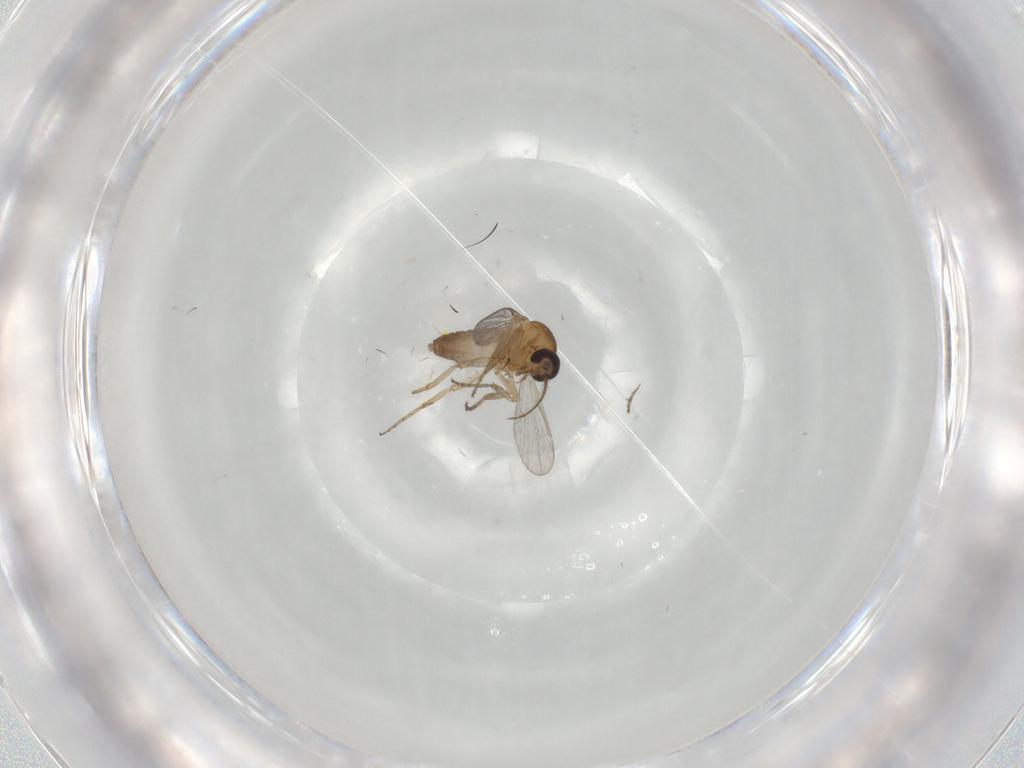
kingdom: Animalia
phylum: Arthropoda
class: Insecta
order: Diptera
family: Ceratopogonidae
